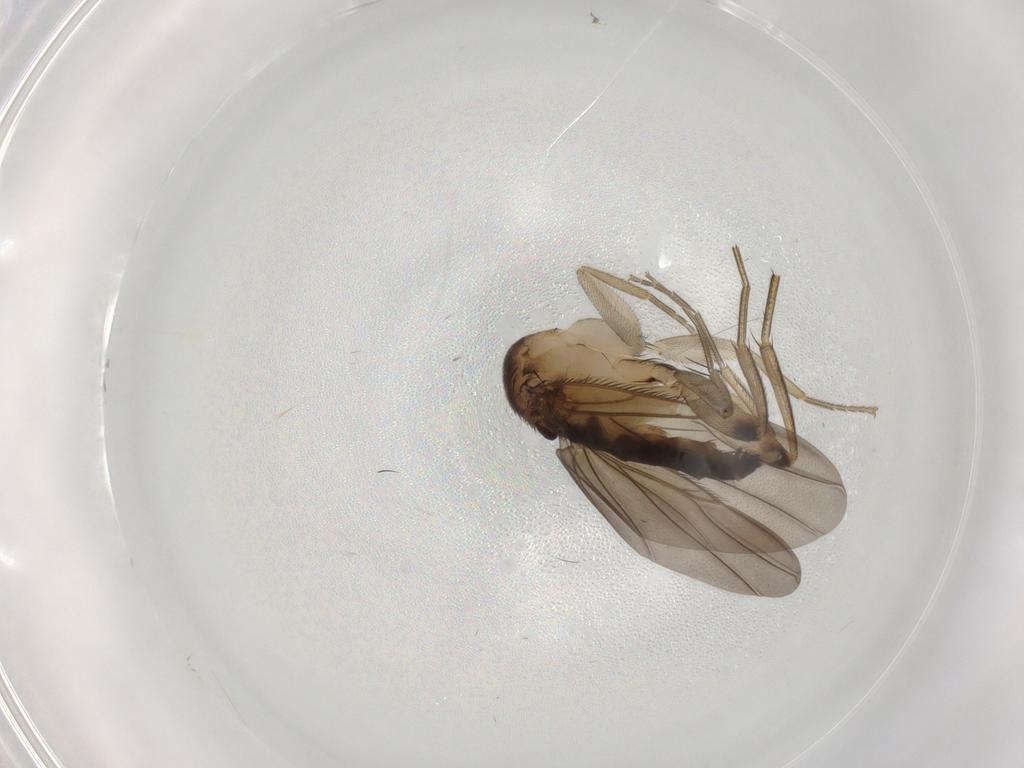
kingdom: Animalia
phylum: Arthropoda
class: Insecta
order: Diptera
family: Phoridae
